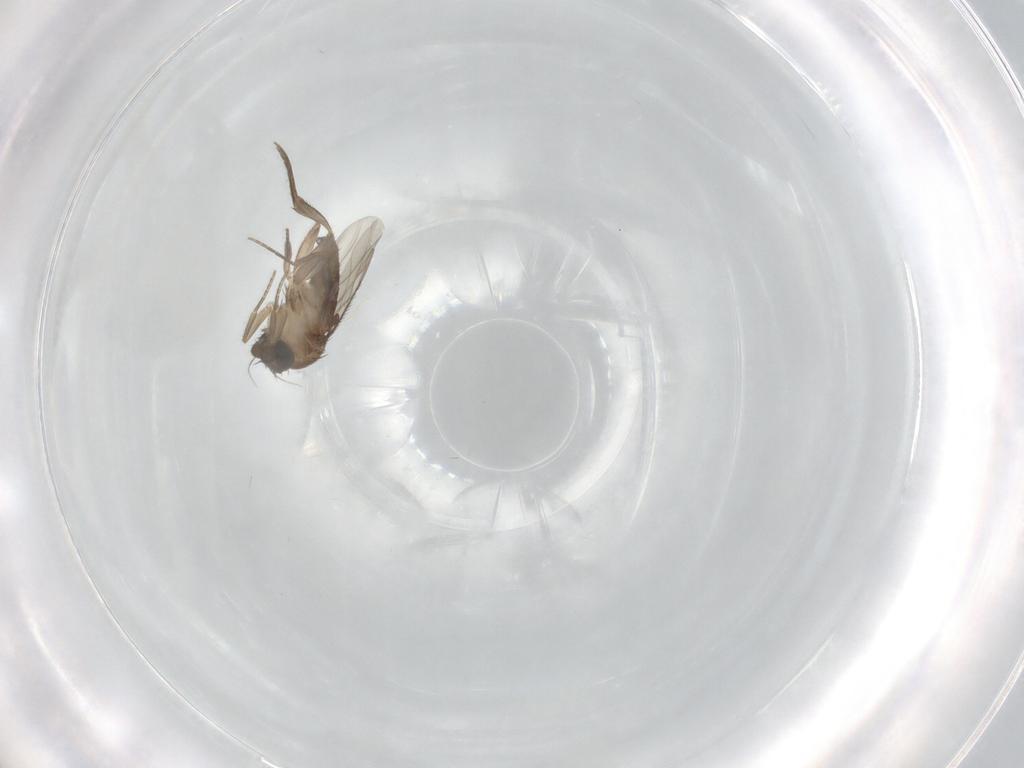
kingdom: Animalia
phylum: Arthropoda
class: Insecta
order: Diptera
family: Phoridae
